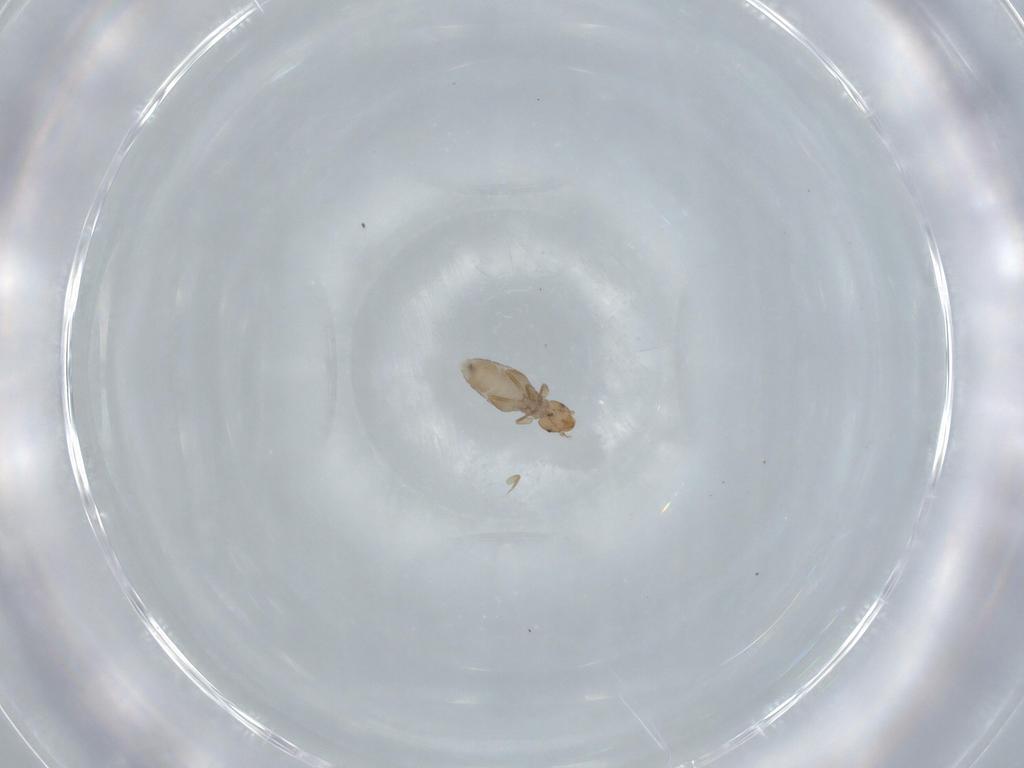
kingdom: Animalia
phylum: Arthropoda
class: Insecta
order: Psocodea
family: Liposcelididae
